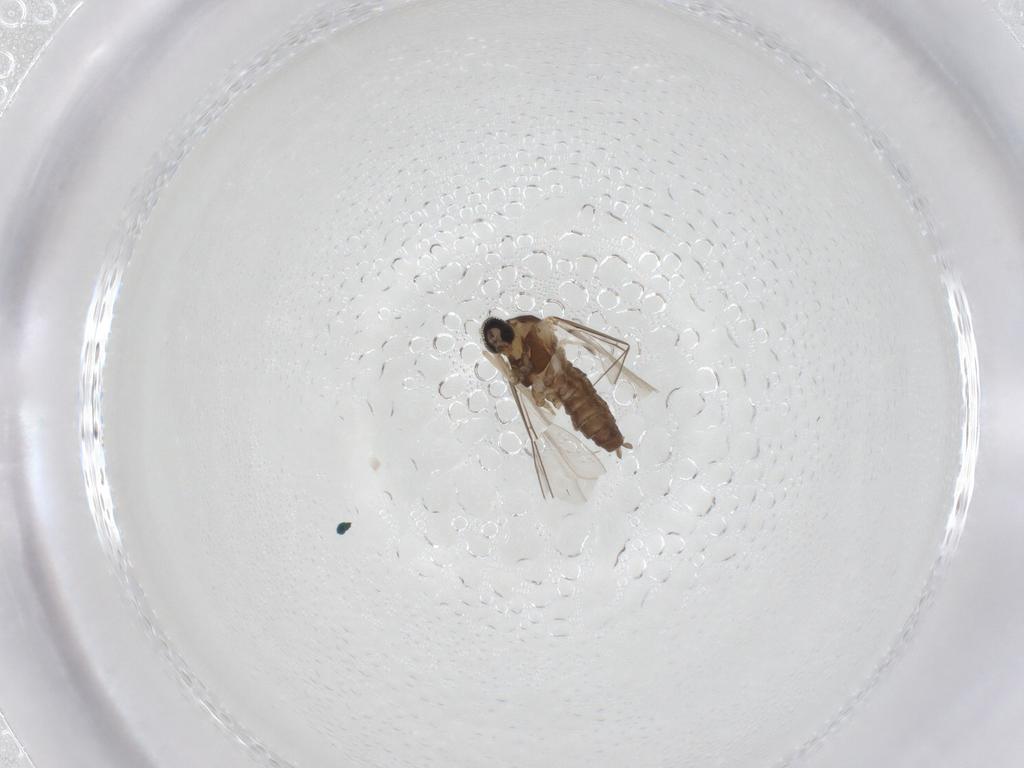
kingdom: Animalia
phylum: Arthropoda
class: Insecta
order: Diptera
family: Cecidomyiidae
